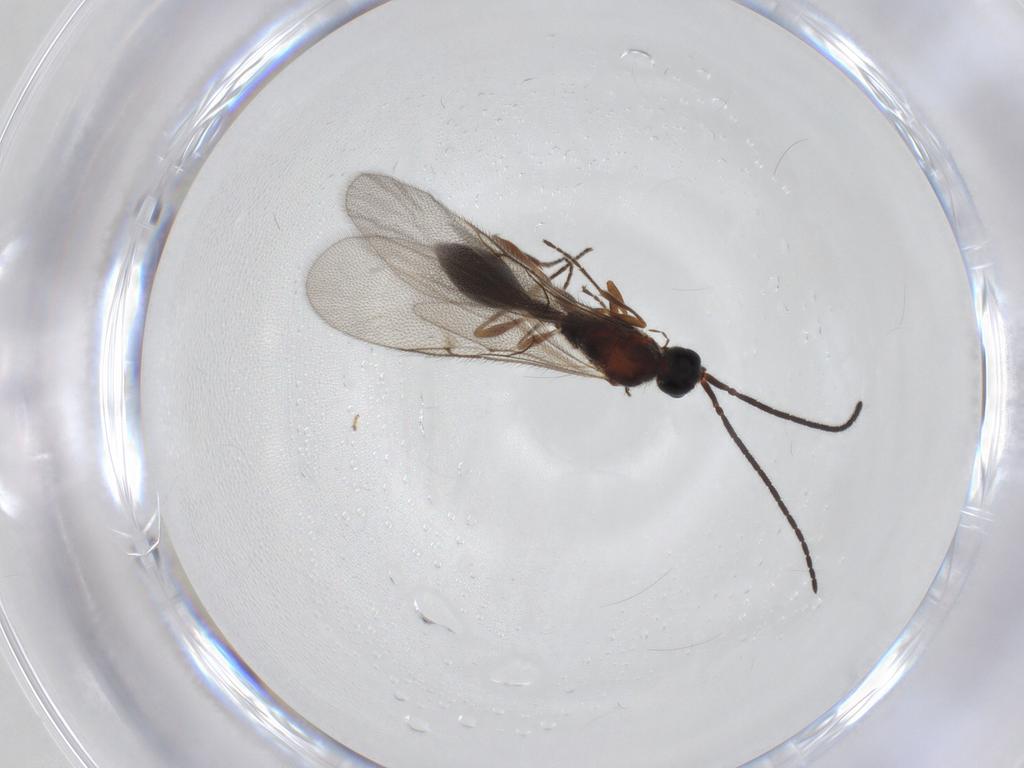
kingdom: Animalia
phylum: Arthropoda
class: Insecta
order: Hymenoptera
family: Diapriidae
